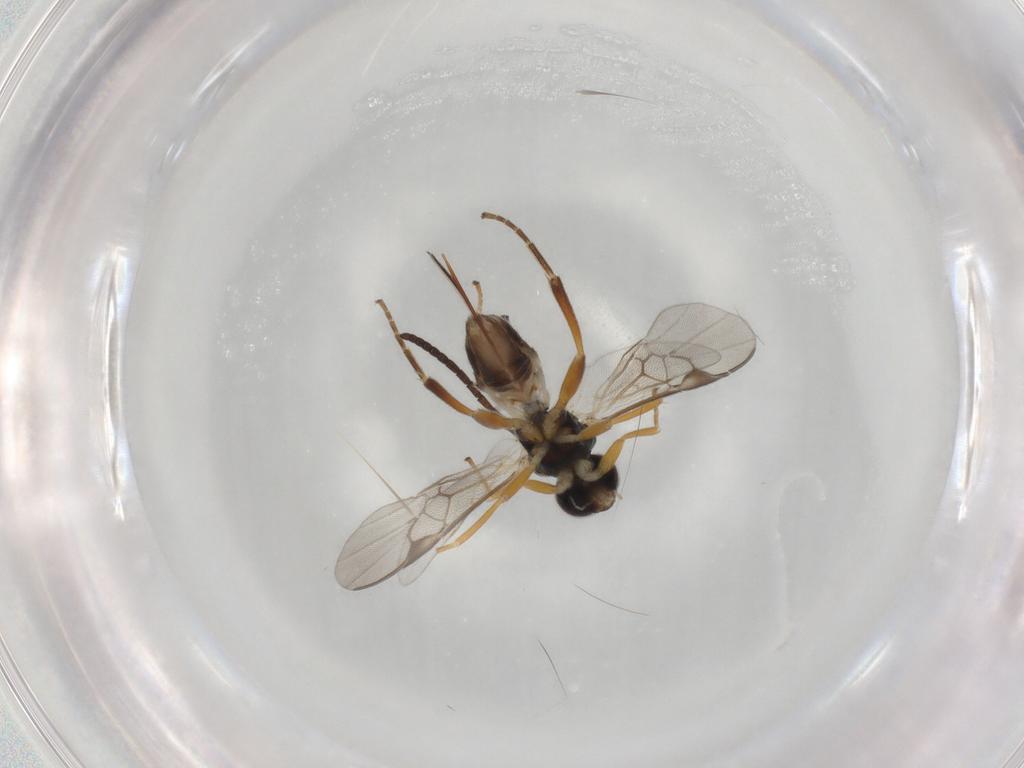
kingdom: Animalia
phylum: Arthropoda
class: Insecta
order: Hymenoptera
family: Braconidae
